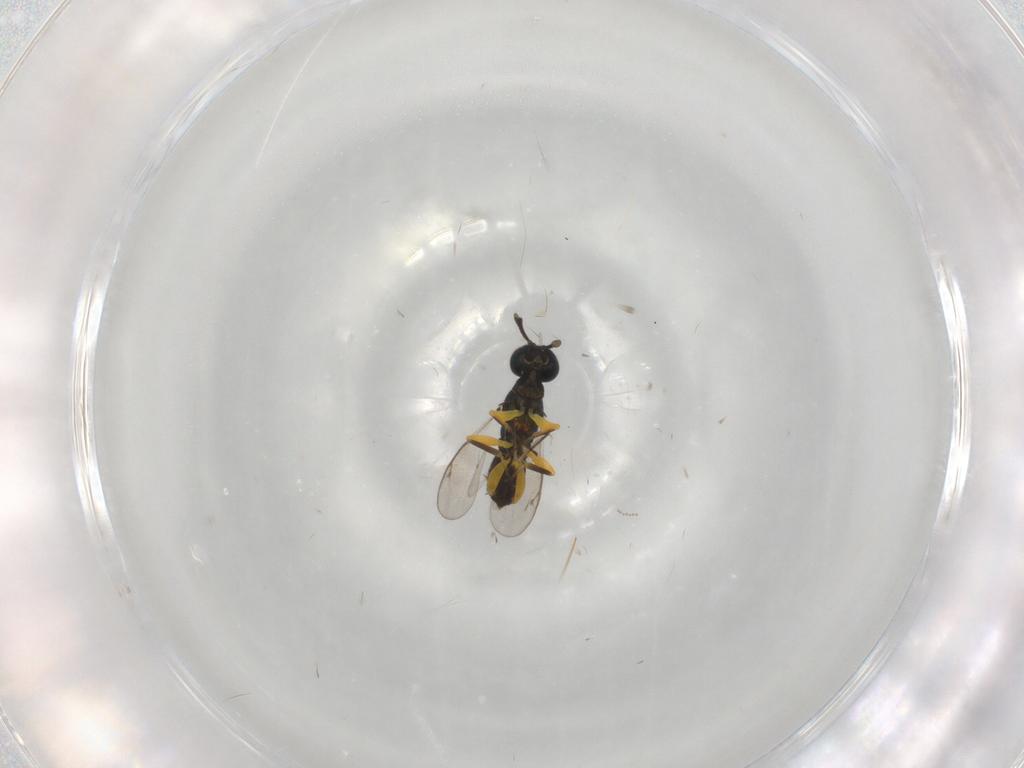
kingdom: Animalia
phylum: Arthropoda
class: Insecta
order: Hymenoptera
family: Eupelmidae
